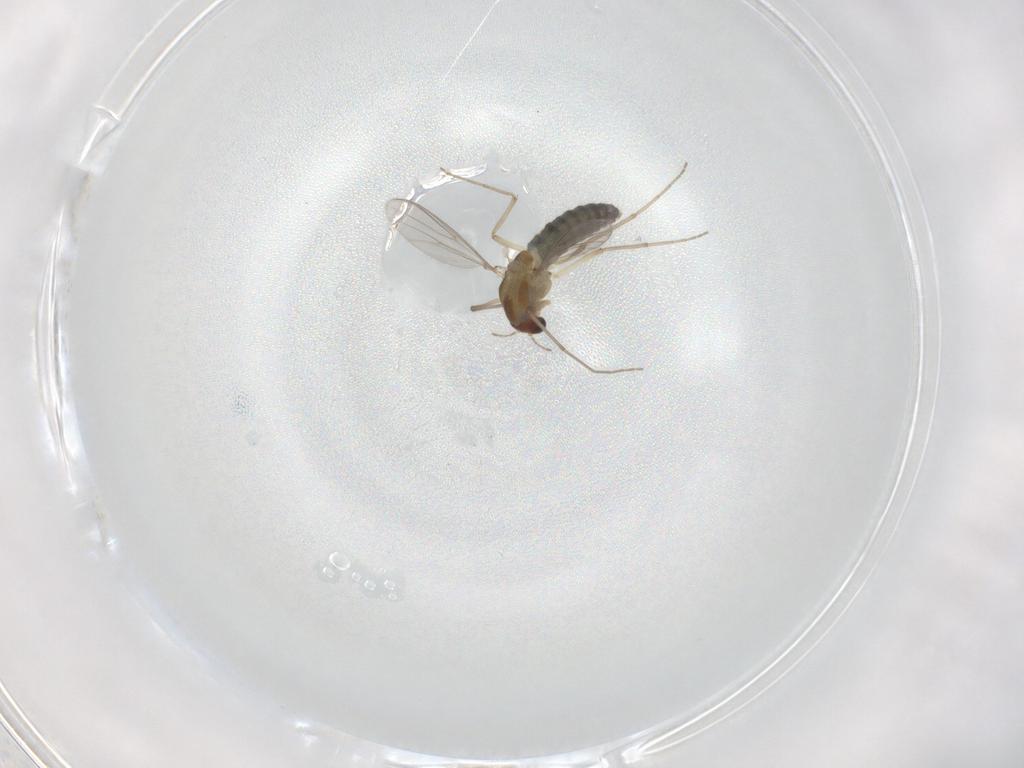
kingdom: Animalia
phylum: Arthropoda
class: Insecta
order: Diptera
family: Chironomidae
